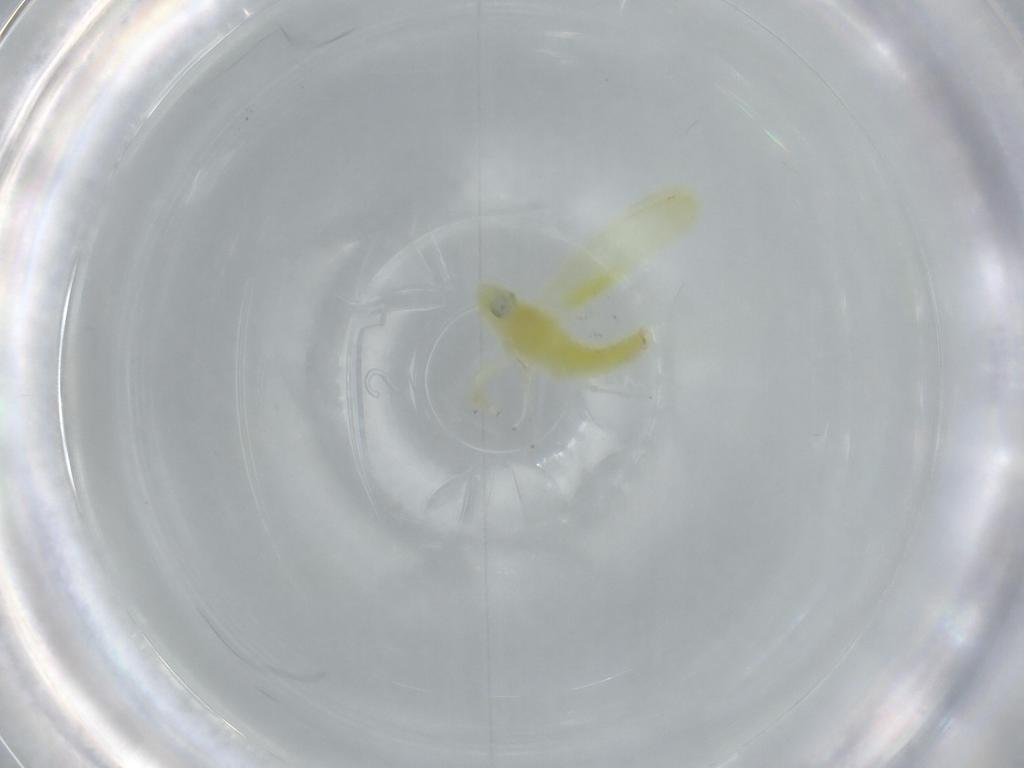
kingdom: Animalia
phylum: Arthropoda
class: Insecta
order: Hemiptera
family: Cicadellidae
